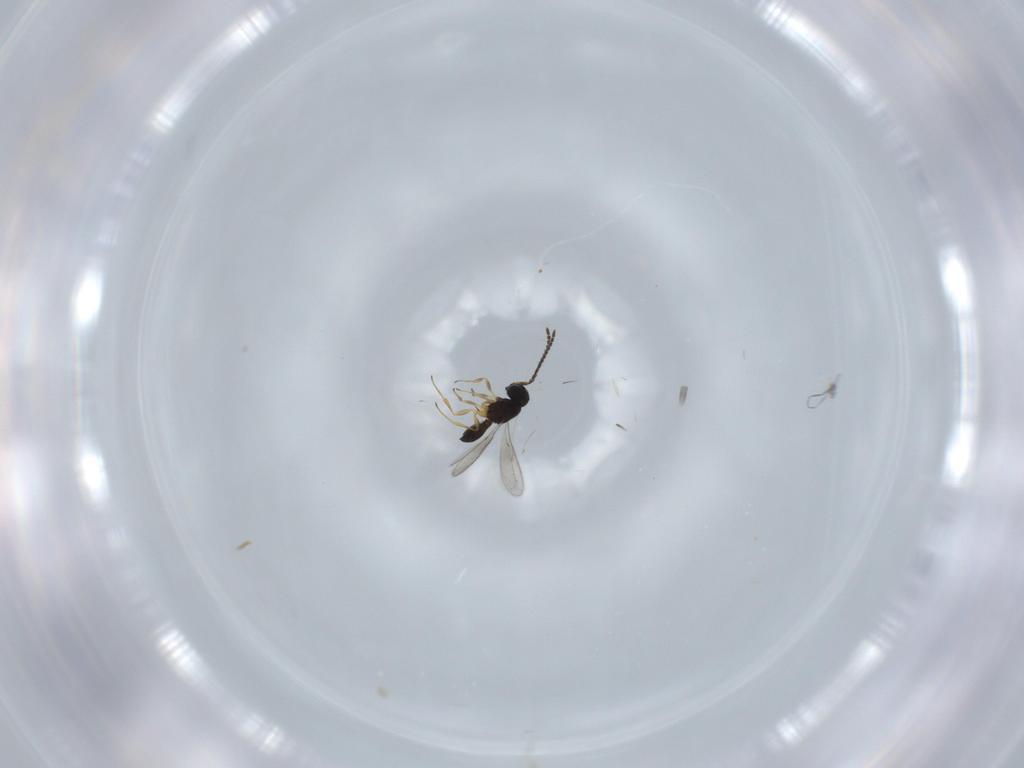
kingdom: Animalia
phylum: Arthropoda
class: Insecta
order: Hymenoptera
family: Scelionidae
